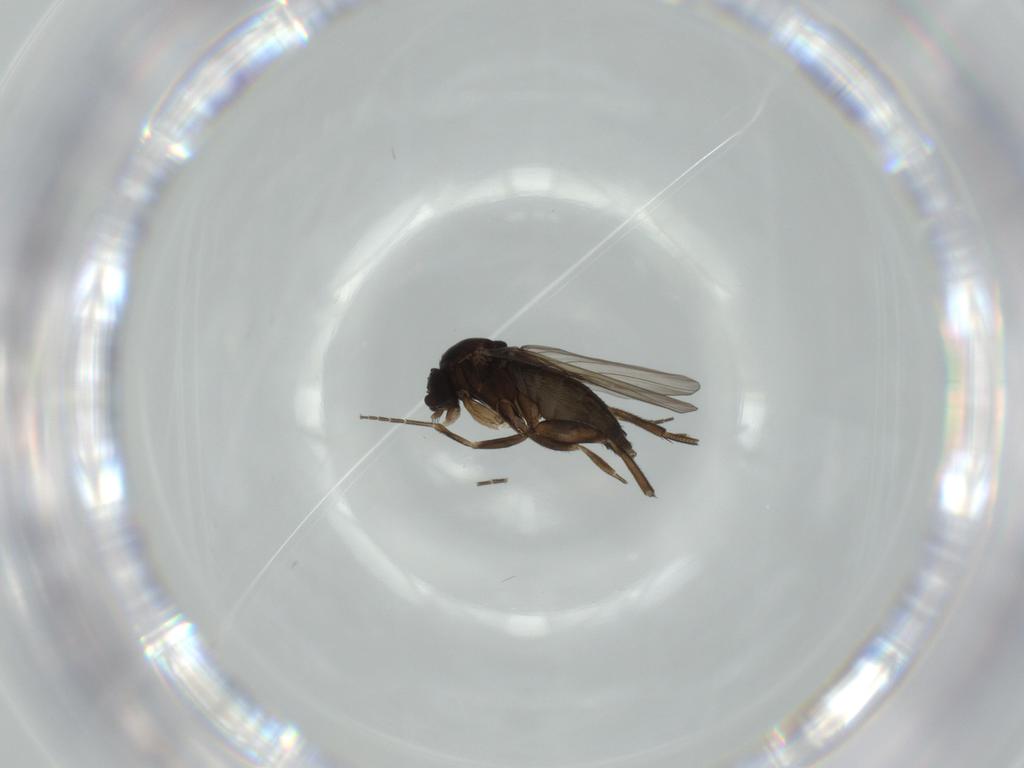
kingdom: Animalia
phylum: Arthropoda
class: Insecta
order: Diptera
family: Phoridae
